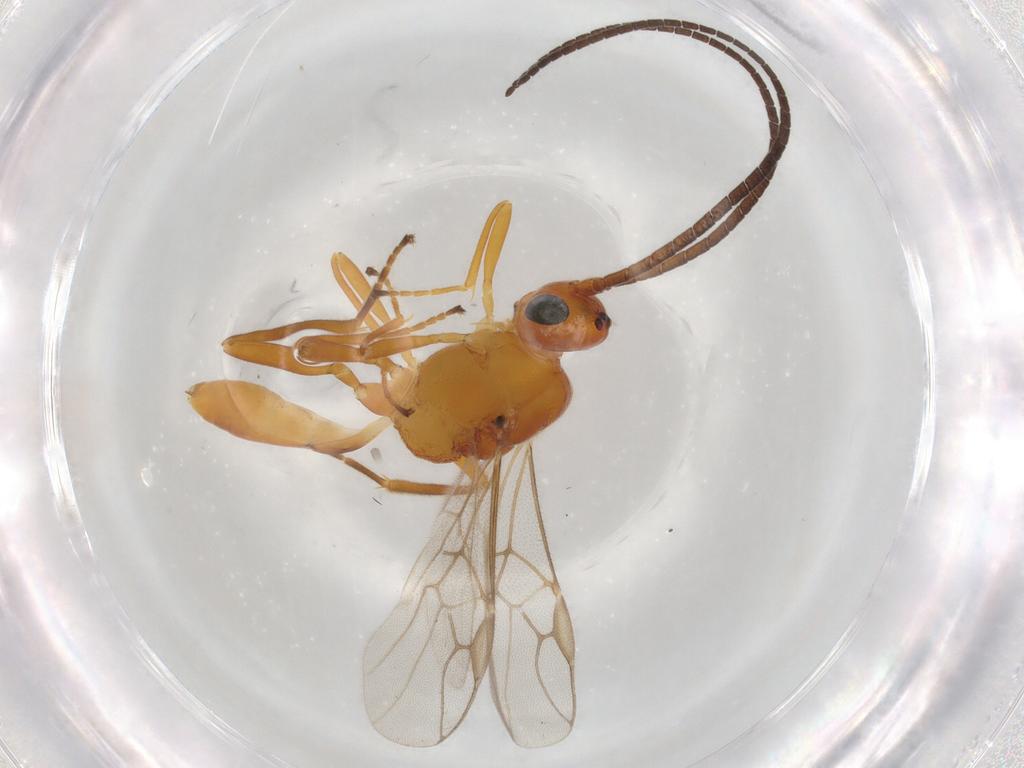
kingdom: Animalia
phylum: Arthropoda
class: Insecta
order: Hymenoptera
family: Braconidae
